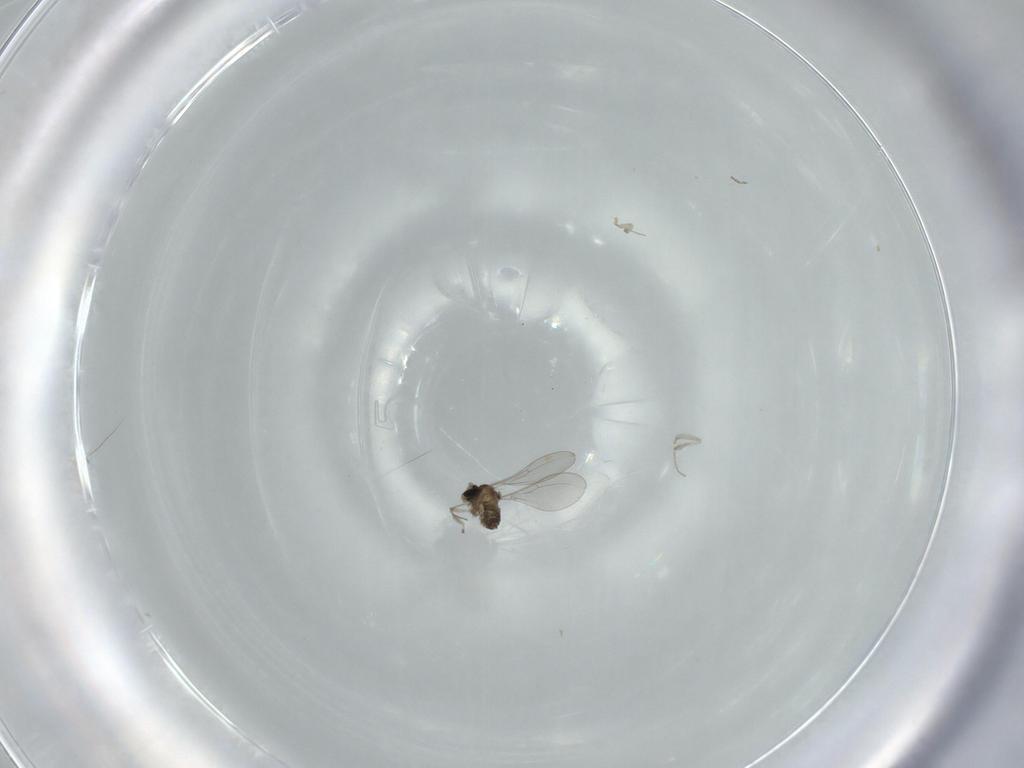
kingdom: Animalia
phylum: Arthropoda
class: Insecta
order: Diptera
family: Cecidomyiidae
